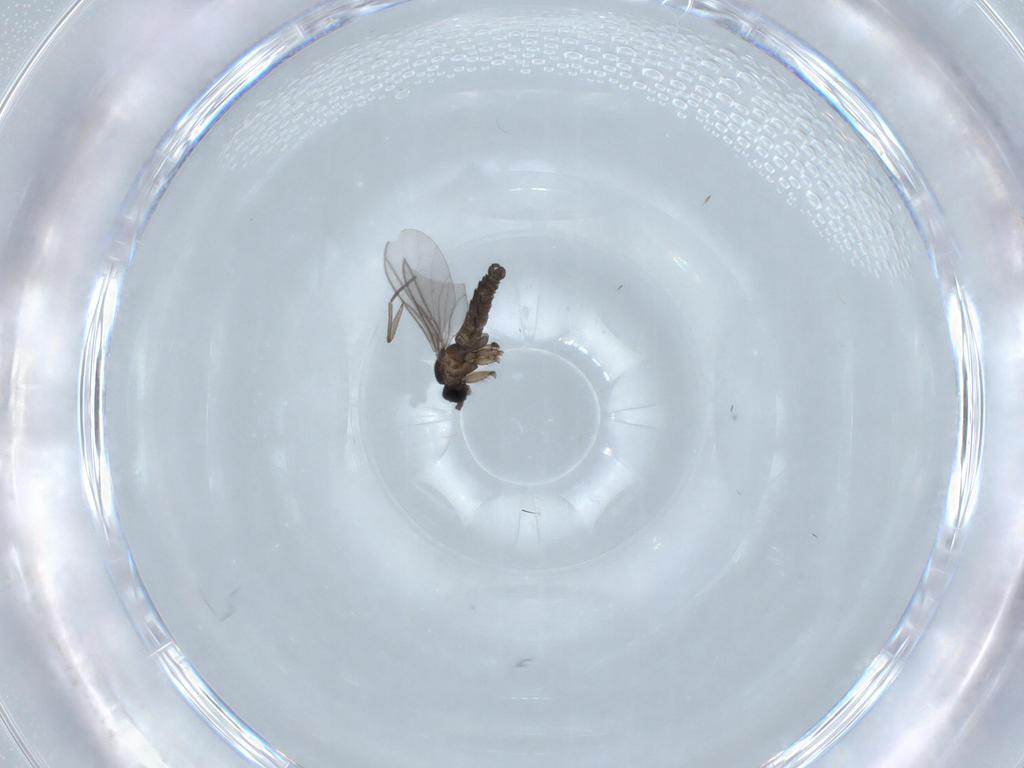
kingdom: Animalia
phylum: Arthropoda
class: Insecta
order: Diptera
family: Cecidomyiidae
